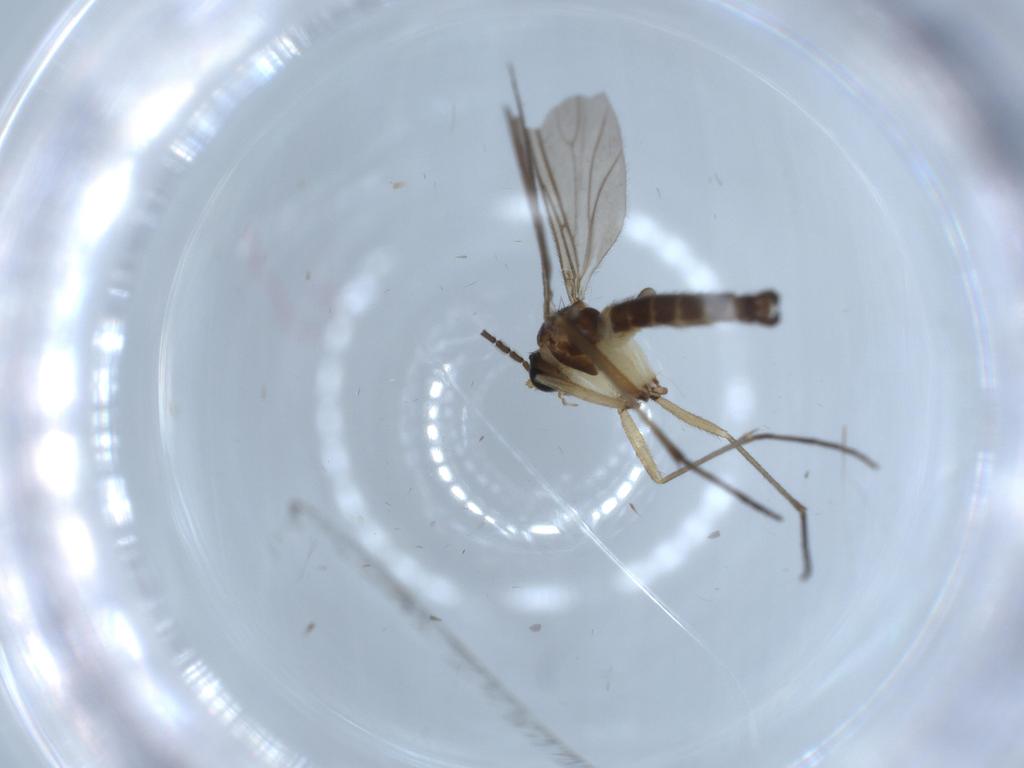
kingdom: Animalia
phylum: Arthropoda
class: Insecta
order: Diptera
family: Sciaridae
